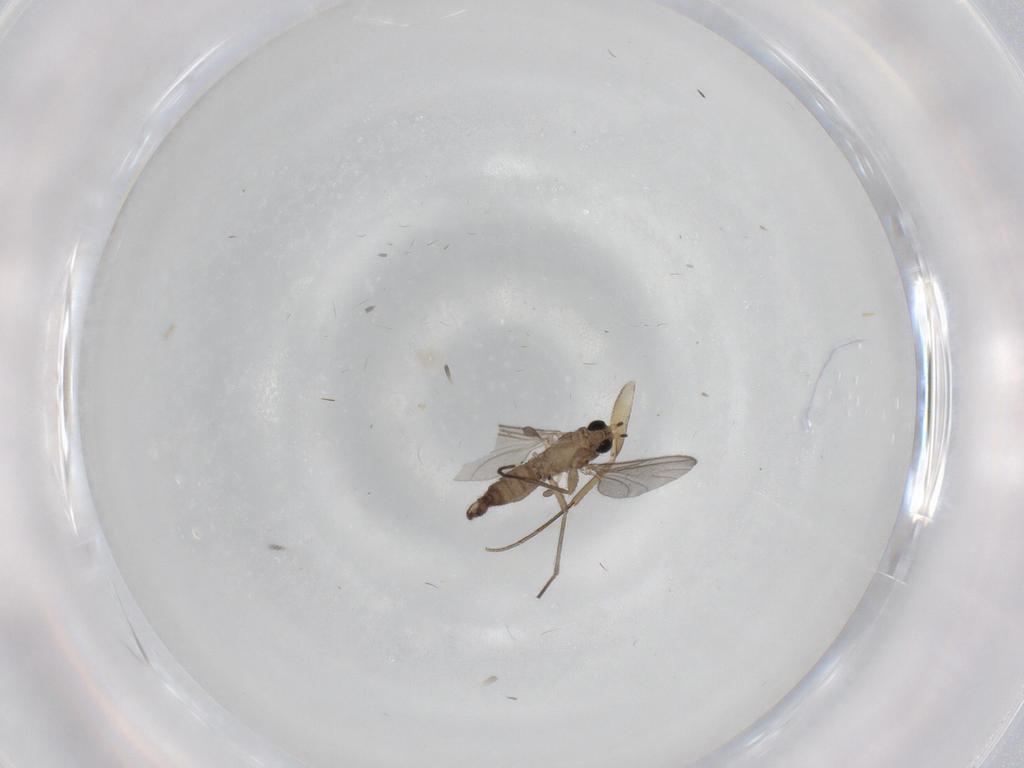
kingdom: Animalia
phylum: Arthropoda
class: Insecta
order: Diptera
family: Sciaridae
